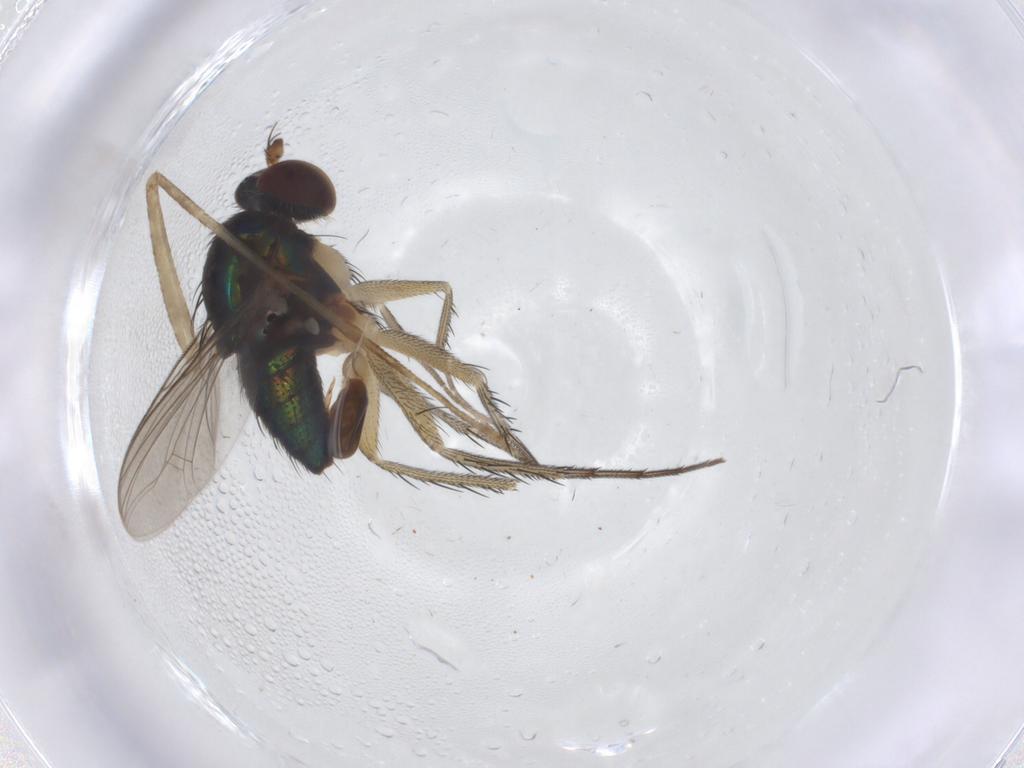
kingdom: Animalia
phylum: Arthropoda
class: Insecta
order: Diptera
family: Dolichopodidae
